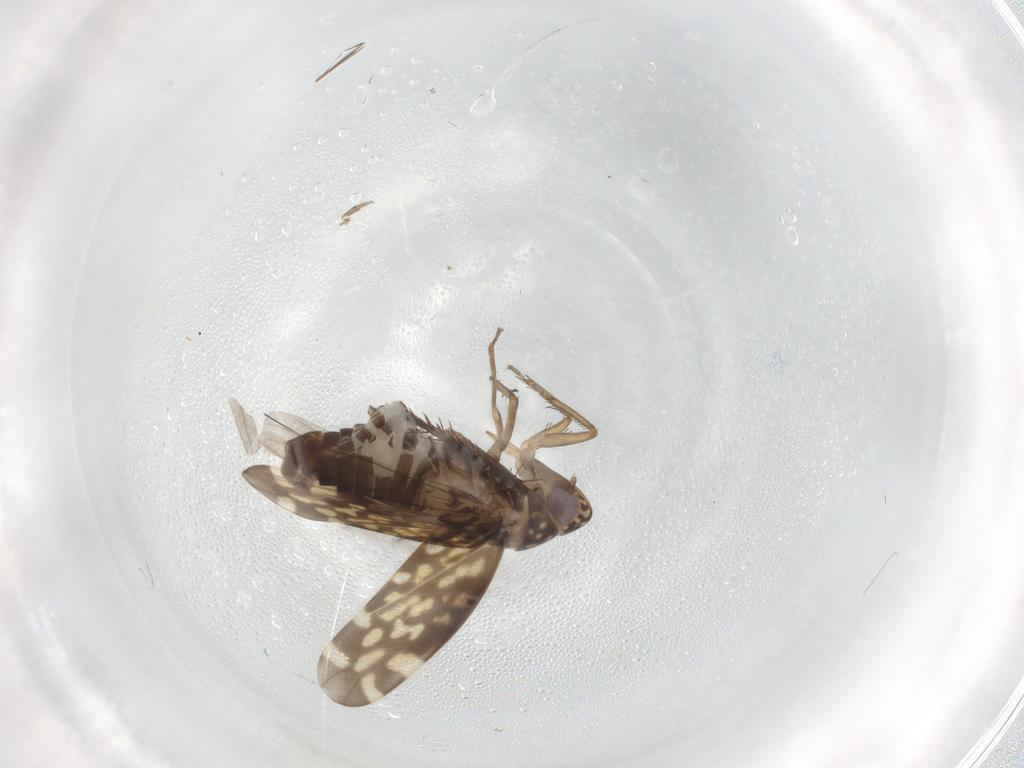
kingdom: Animalia
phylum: Arthropoda
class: Insecta
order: Hemiptera
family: Cicadellidae
